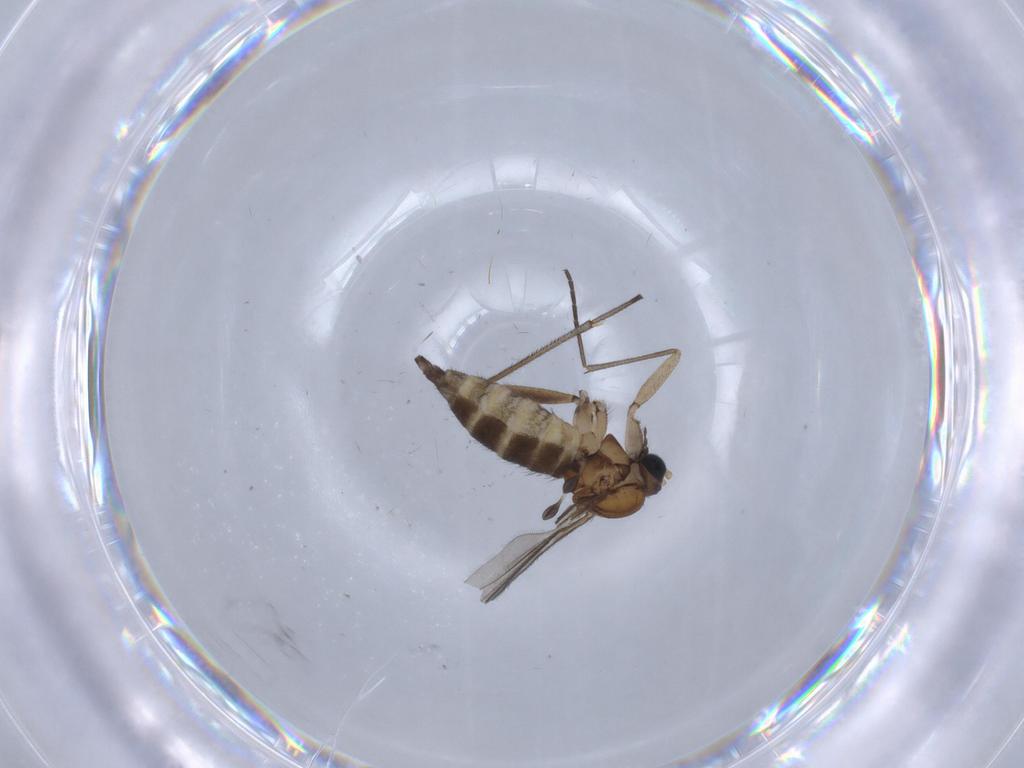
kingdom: Animalia
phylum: Arthropoda
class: Insecta
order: Diptera
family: Sciaridae
